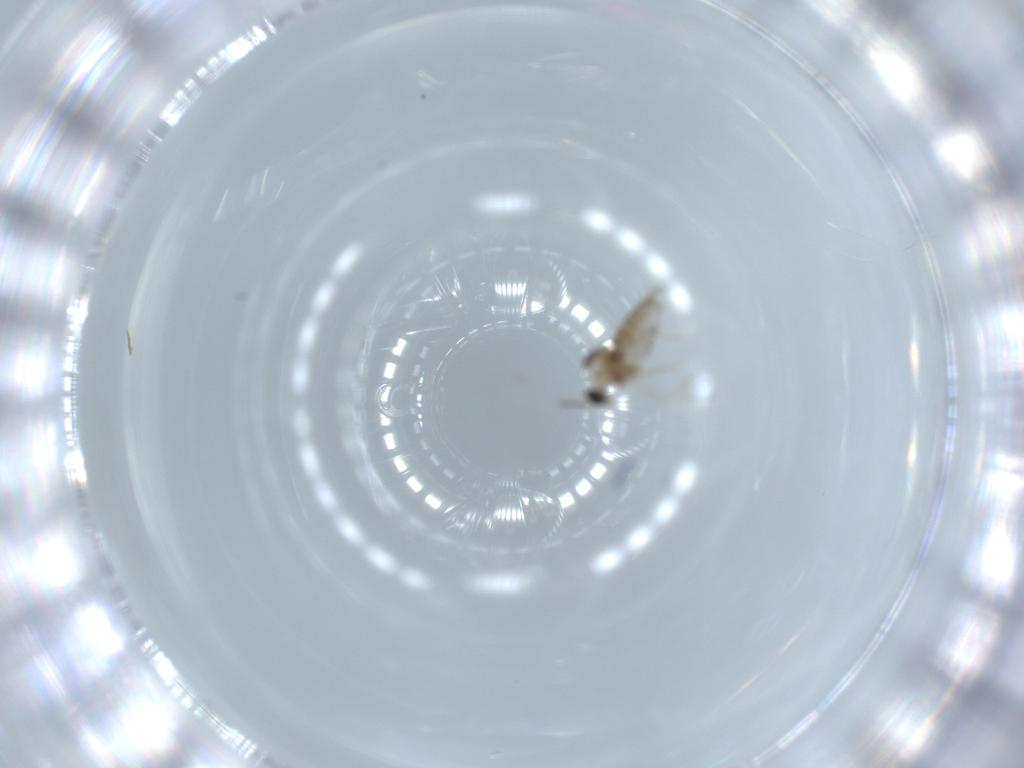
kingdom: Animalia
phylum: Arthropoda
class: Insecta
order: Diptera
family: Cecidomyiidae
